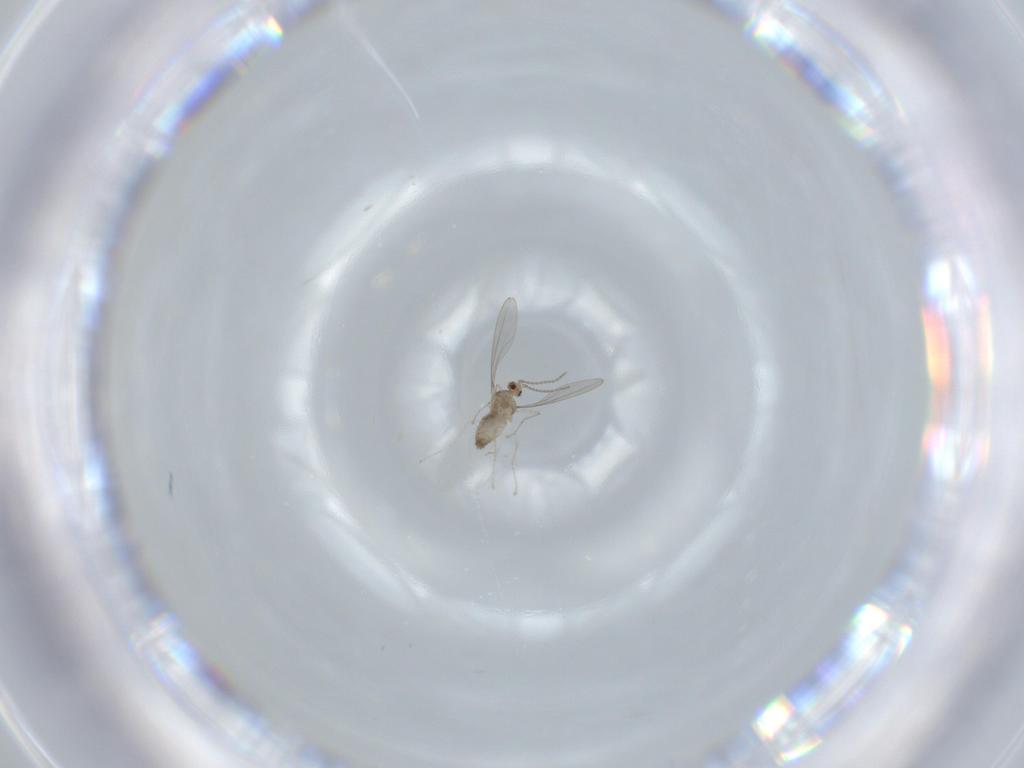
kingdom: Animalia
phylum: Arthropoda
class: Insecta
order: Diptera
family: Cecidomyiidae
